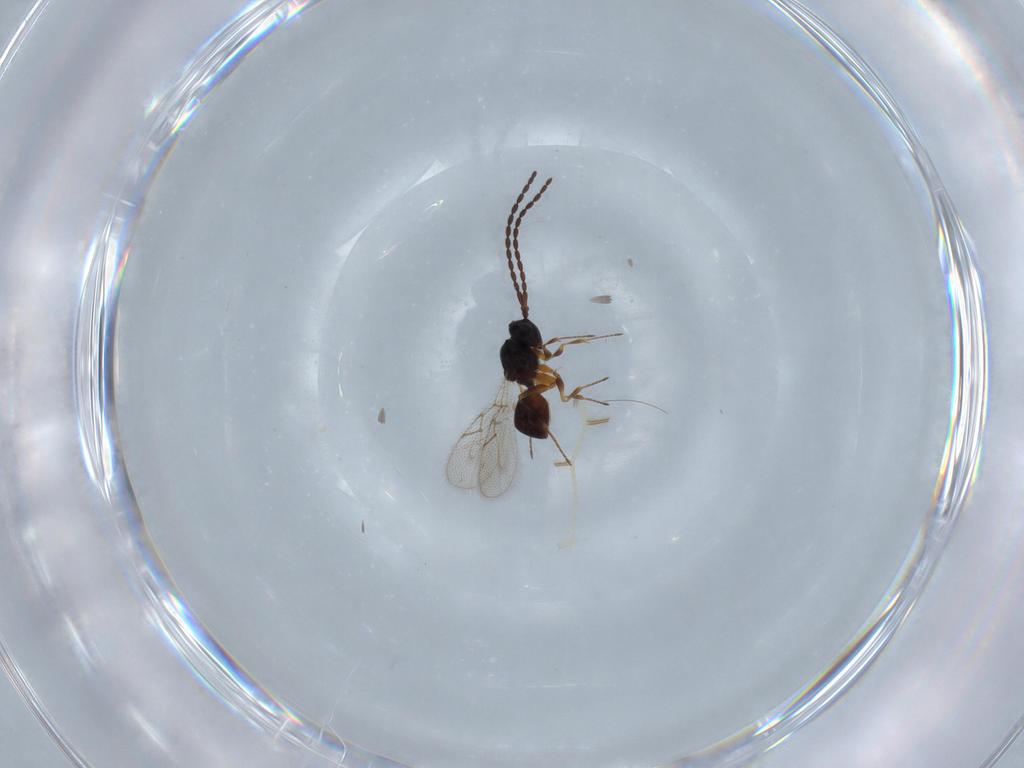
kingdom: Animalia
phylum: Arthropoda
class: Insecta
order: Hymenoptera
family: Figitidae
